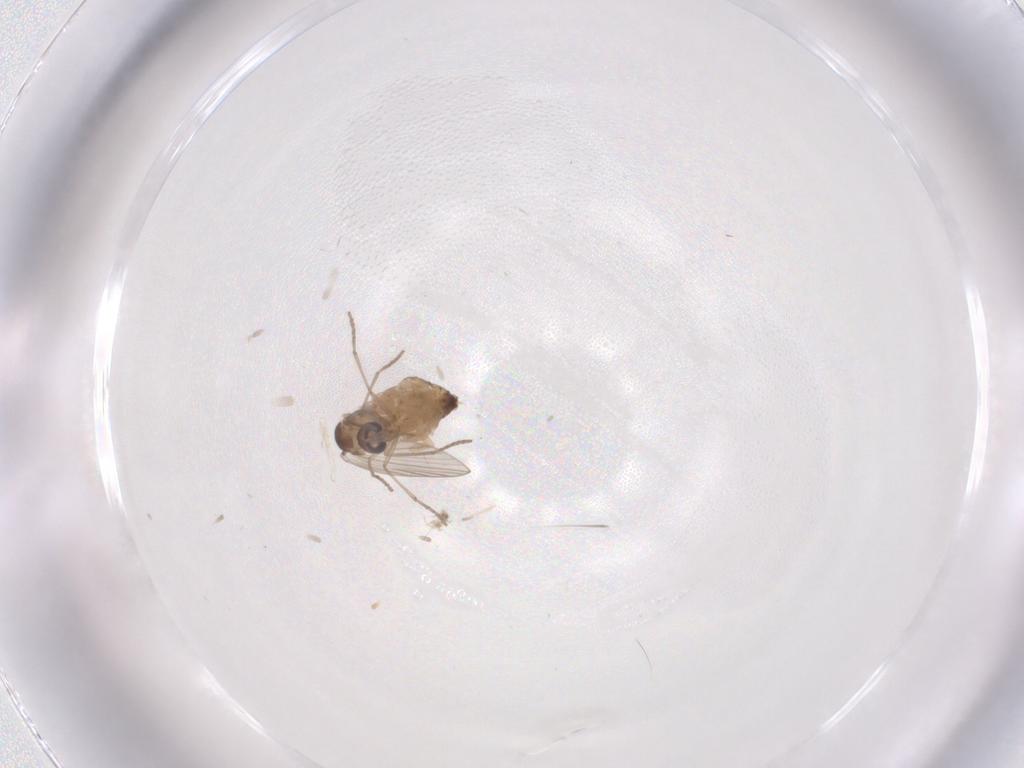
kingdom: Animalia
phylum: Arthropoda
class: Insecta
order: Diptera
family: Psychodidae
